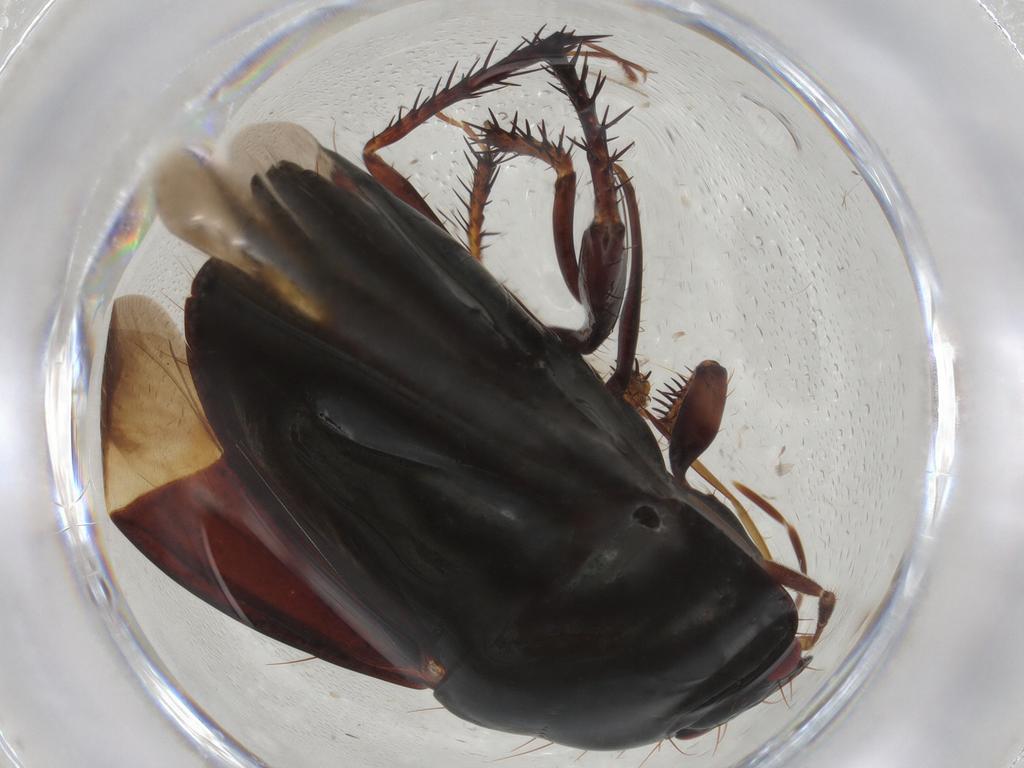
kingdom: Animalia
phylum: Arthropoda
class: Insecta
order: Hemiptera
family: Cydnidae
